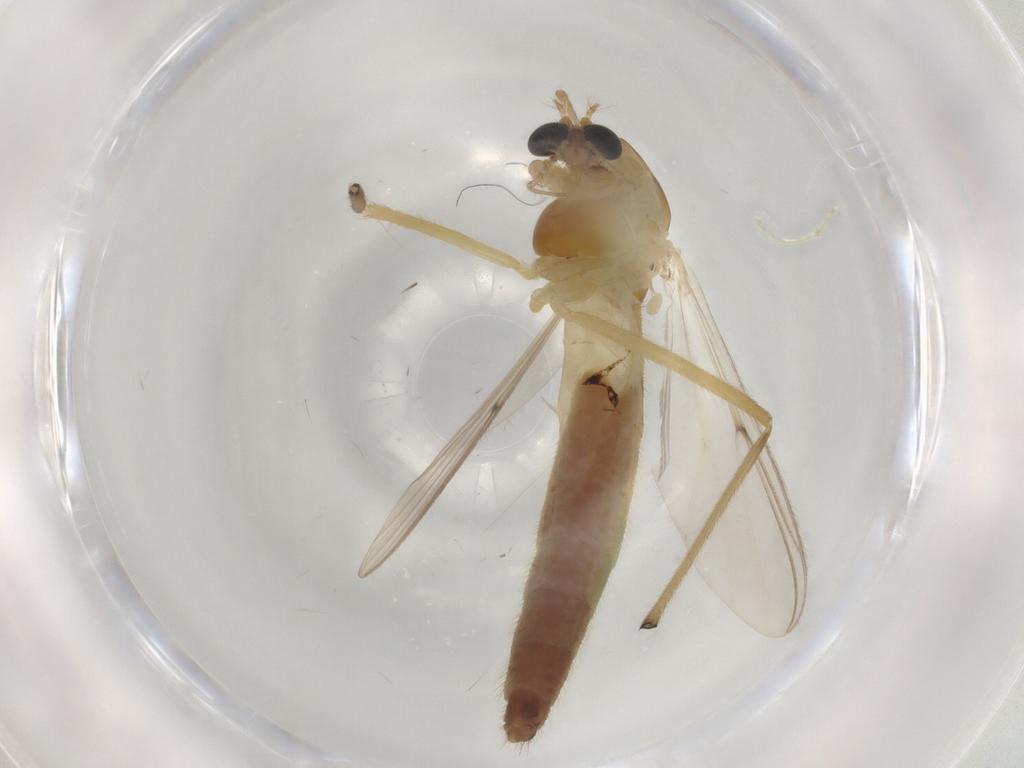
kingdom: Animalia
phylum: Arthropoda
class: Insecta
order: Diptera
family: Chironomidae
